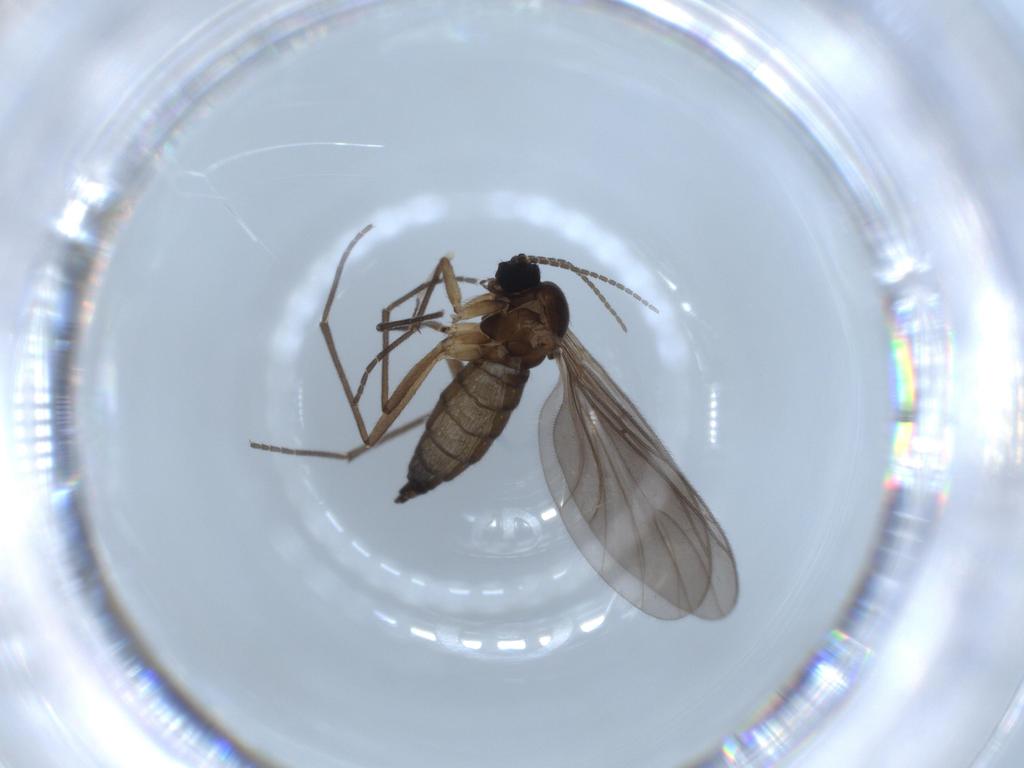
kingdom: Animalia
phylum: Arthropoda
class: Insecta
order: Diptera
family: Sciaridae
